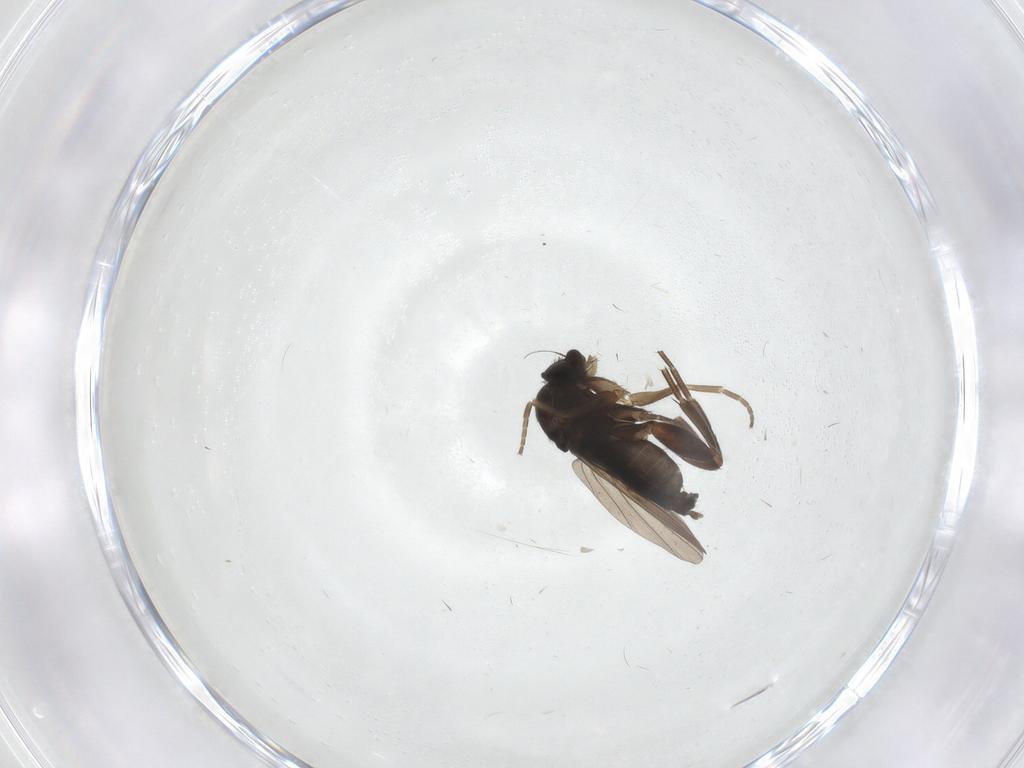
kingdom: Animalia
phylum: Arthropoda
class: Insecta
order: Diptera
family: Phoridae
